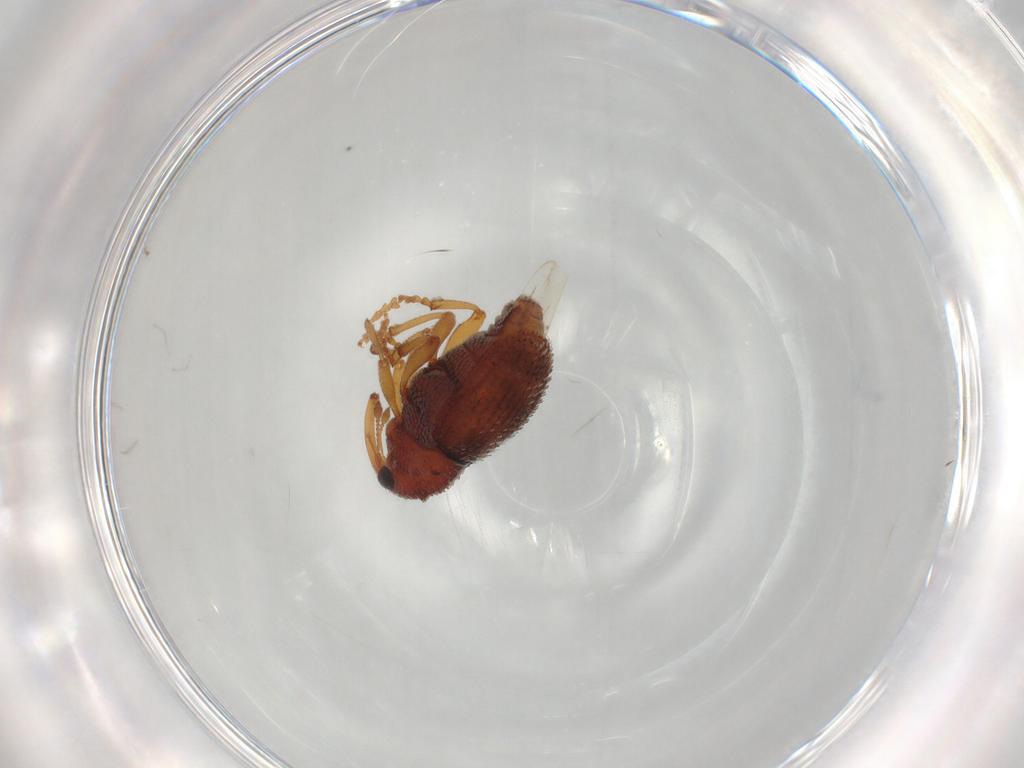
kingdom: Animalia
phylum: Arthropoda
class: Insecta
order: Coleoptera
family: Curculionidae
